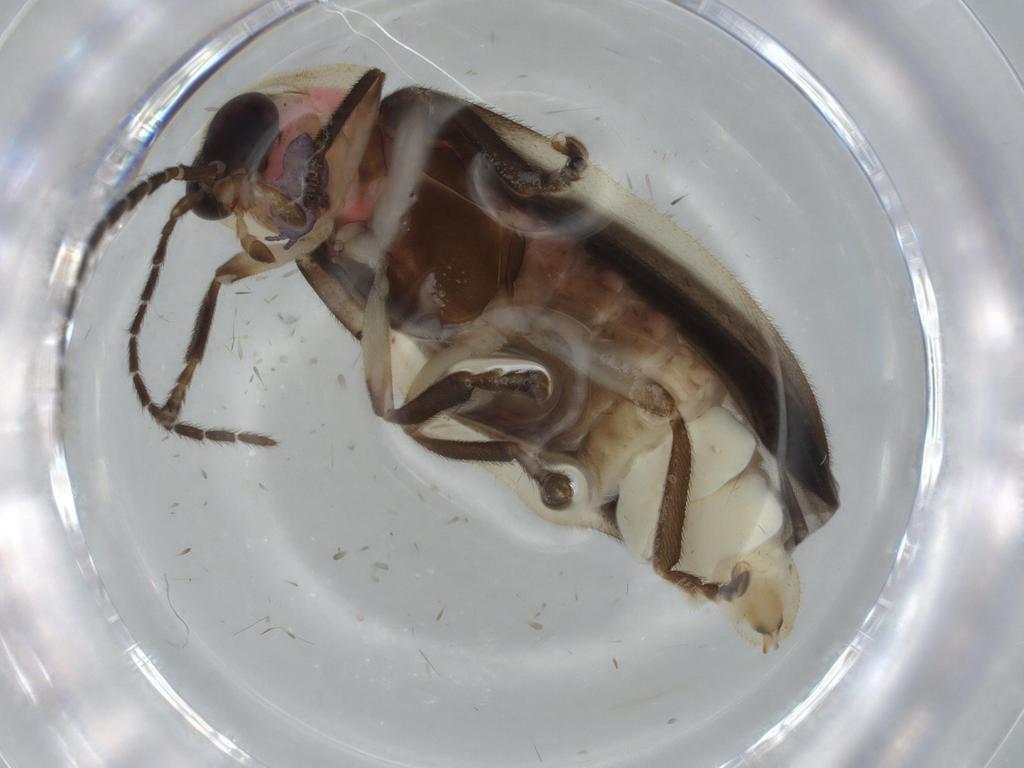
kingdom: Animalia
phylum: Arthropoda
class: Insecta
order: Coleoptera
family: Lampyridae
